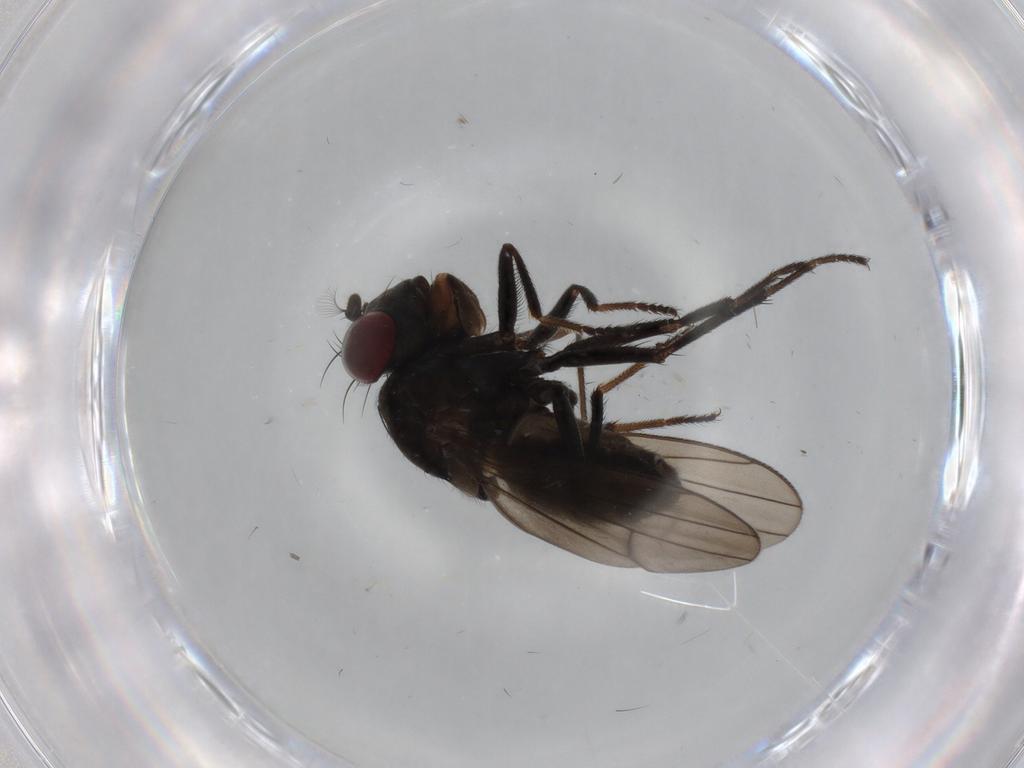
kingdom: Animalia
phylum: Arthropoda
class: Insecta
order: Diptera
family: Ephydridae
